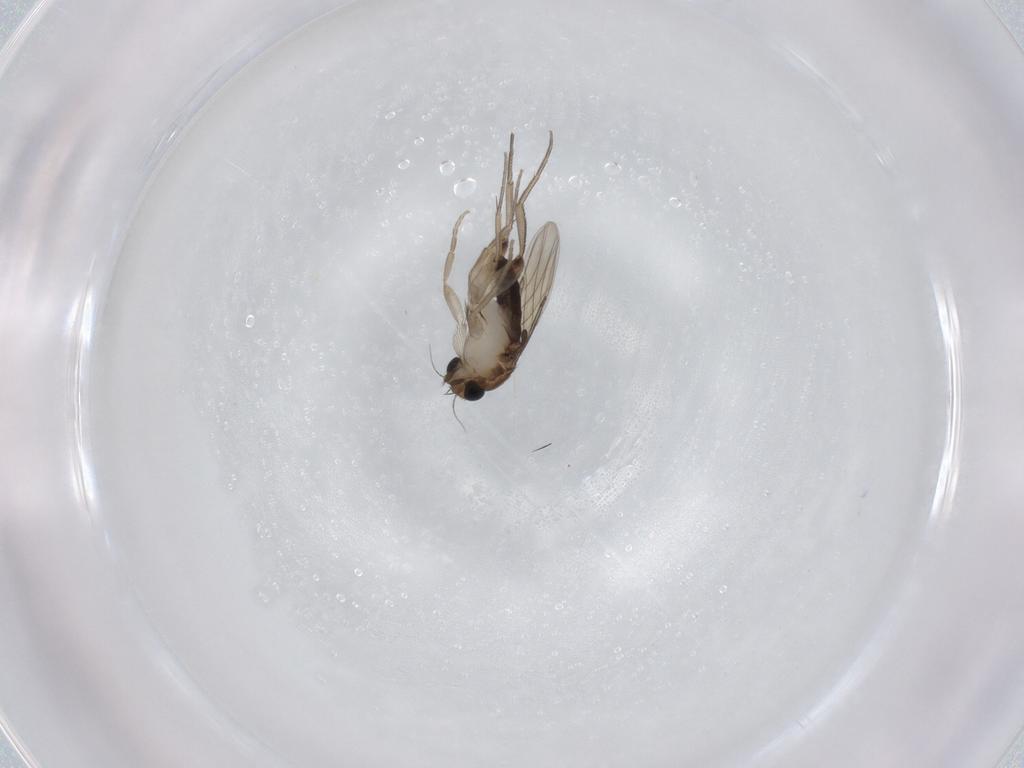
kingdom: Animalia
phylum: Arthropoda
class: Insecta
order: Diptera
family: Phoridae
